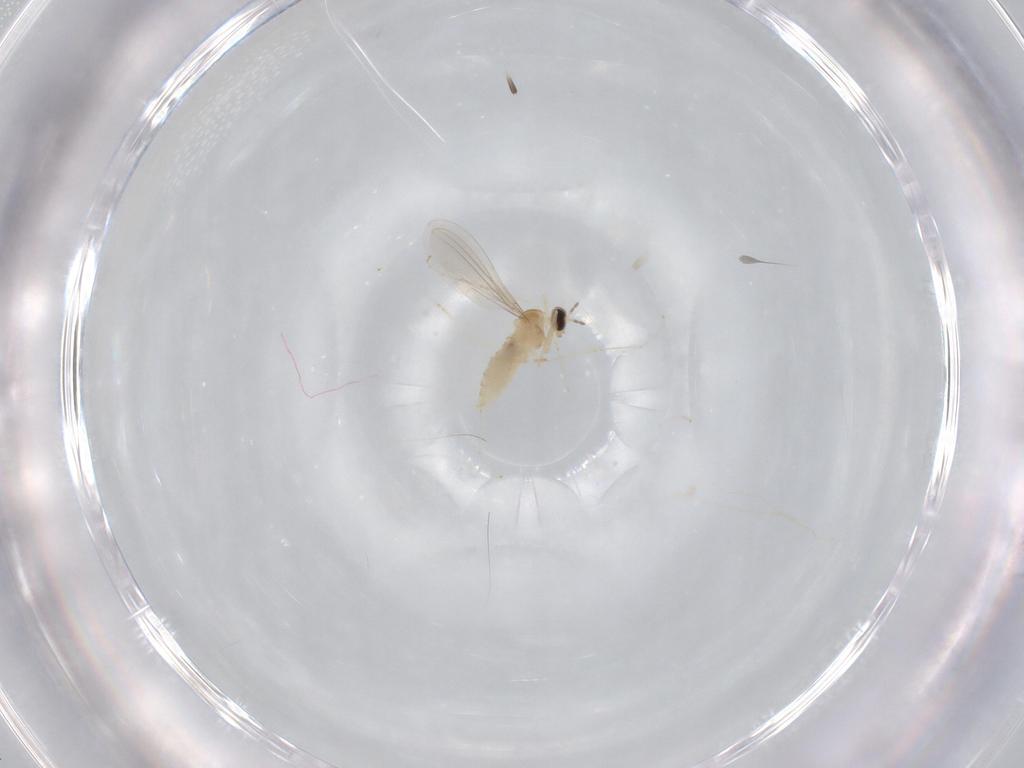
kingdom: Animalia
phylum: Arthropoda
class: Insecta
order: Diptera
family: Cecidomyiidae
